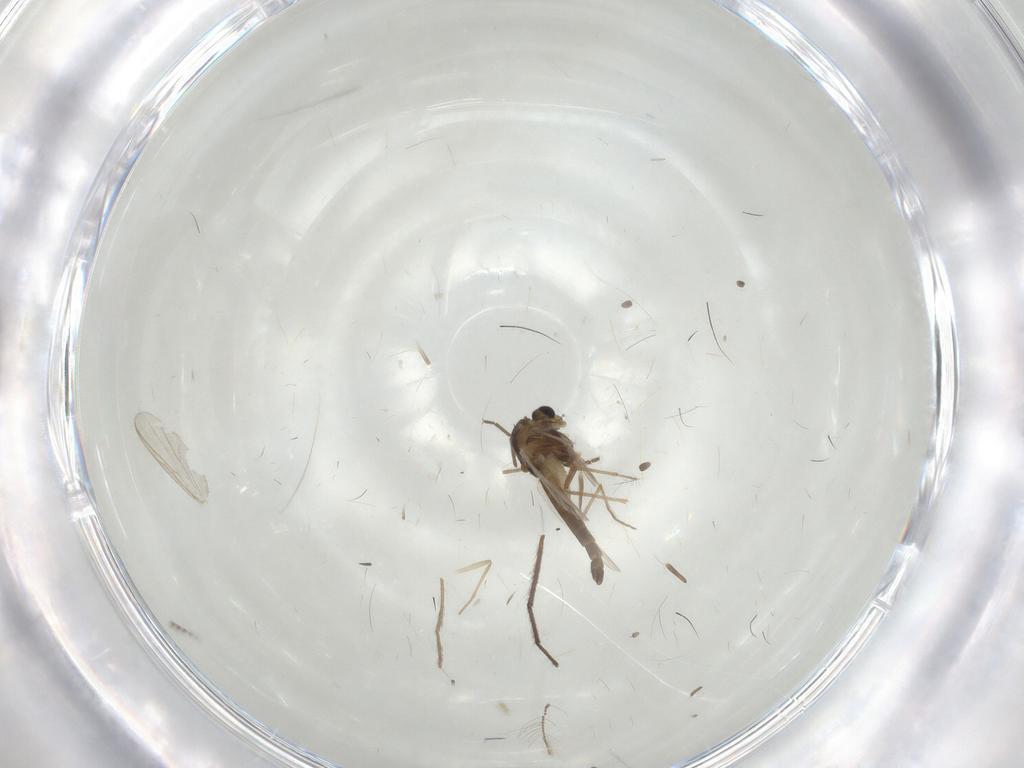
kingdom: Animalia
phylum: Arthropoda
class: Insecta
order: Diptera
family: Chironomidae
